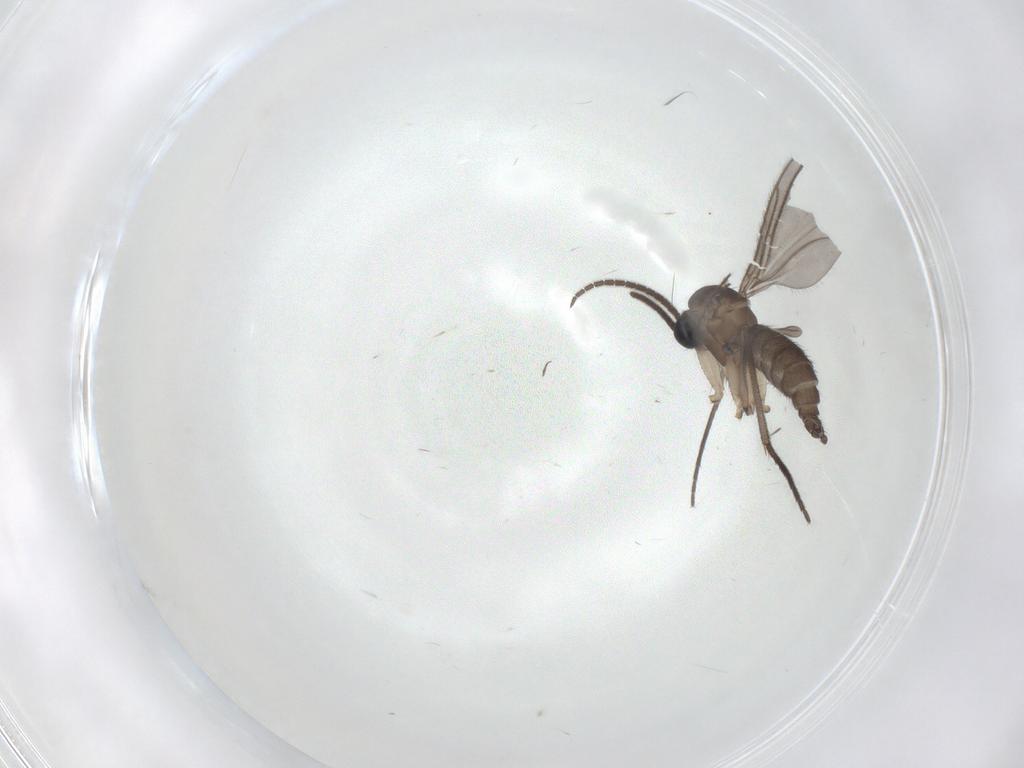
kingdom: Animalia
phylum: Arthropoda
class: Insecta
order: Diptera
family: Sciaridae
